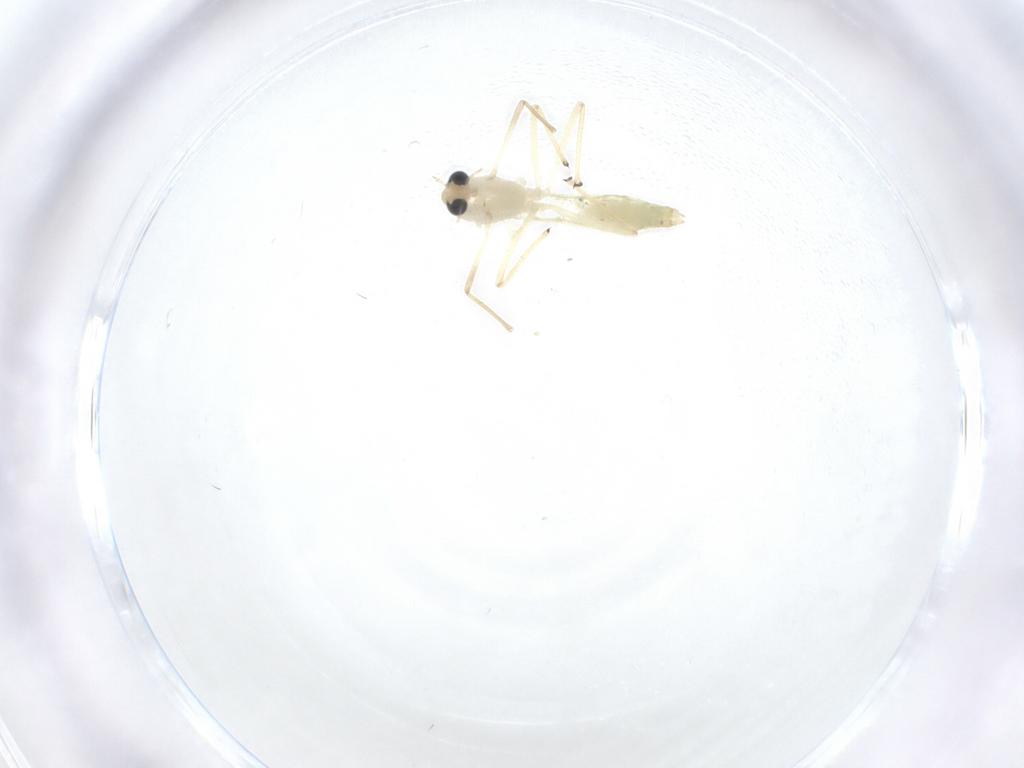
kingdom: Animalia
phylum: Arthropoda
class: Insecta
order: Diptera
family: Chironomidae
